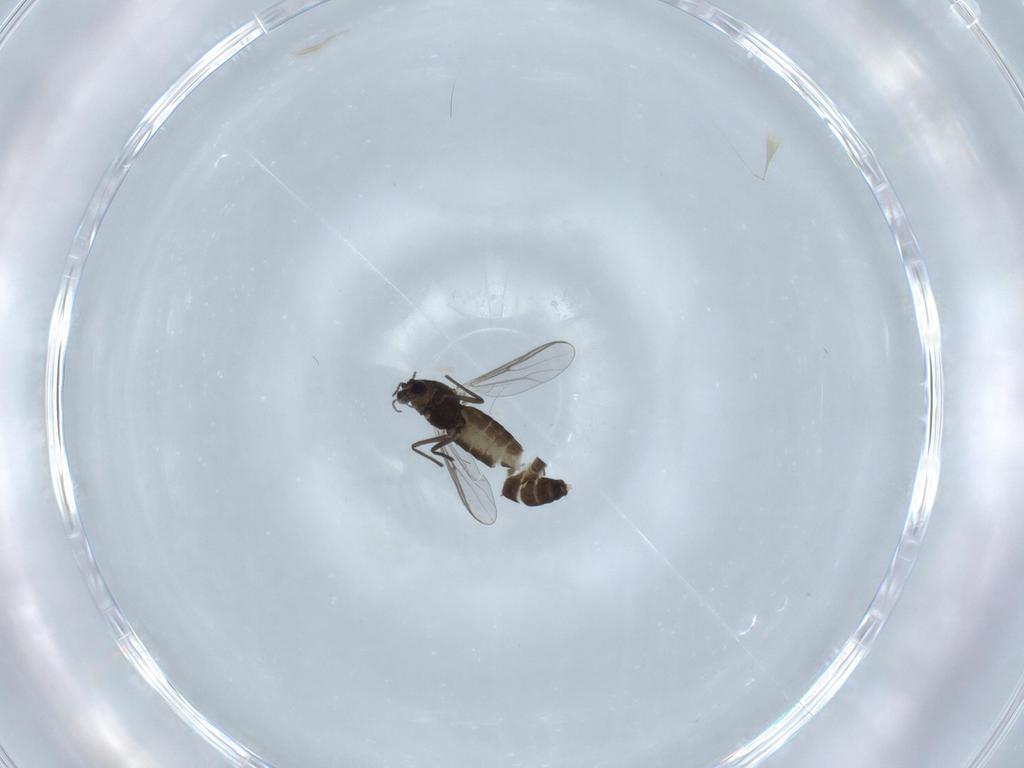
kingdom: Animalia
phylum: Arthropoda
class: Insecta
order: Diptera
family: Chironomidae
